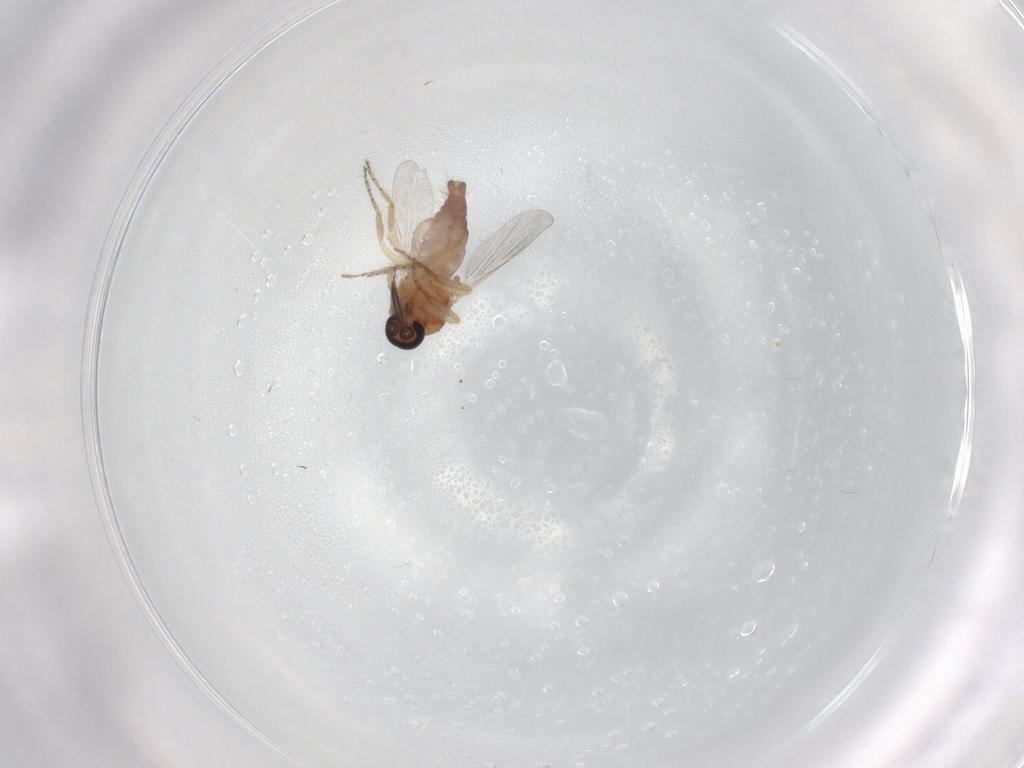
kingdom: Animalia
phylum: Arthropoda
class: Insecta
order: Diptera
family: Ceratopogonidae
